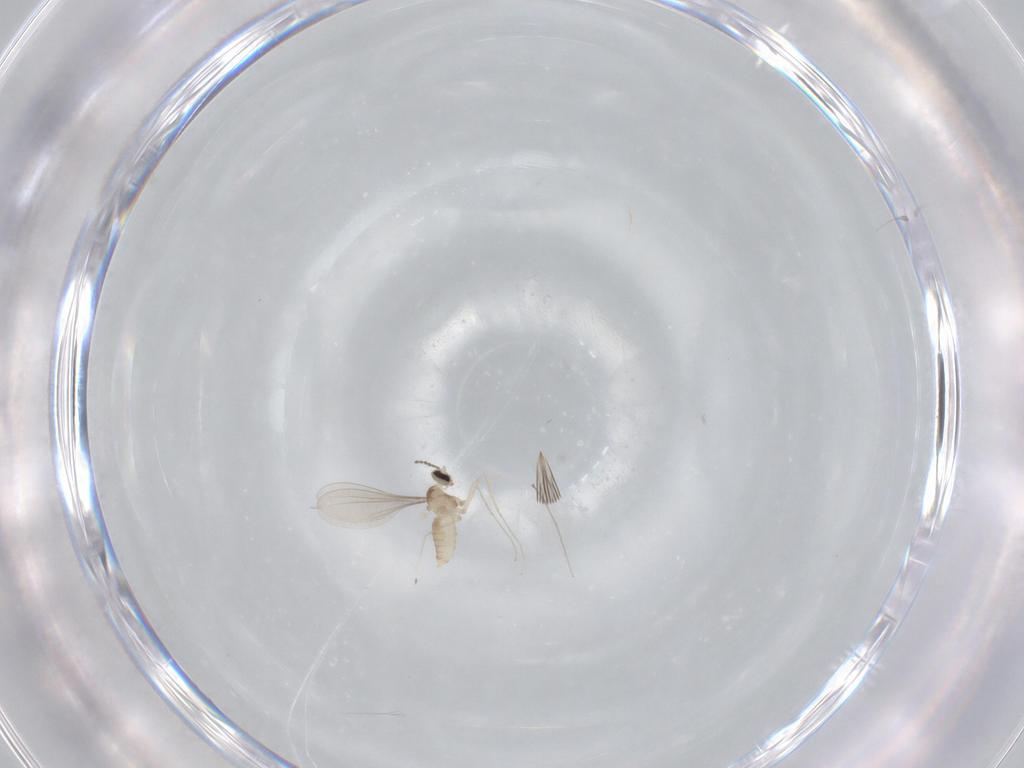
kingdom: Animalia
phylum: Arthropoda
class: Insecta
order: Diptera
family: Cecidomyiidae
